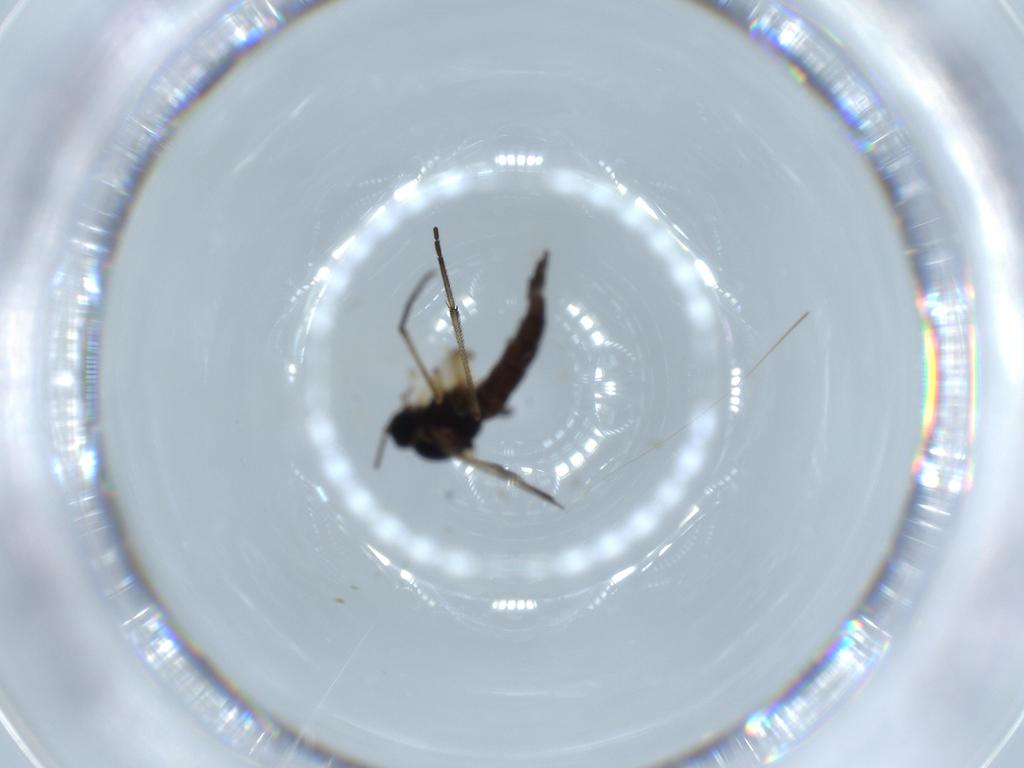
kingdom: Animalia
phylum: Arthropoda
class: Insecta
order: Diptera
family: Sciaridae
